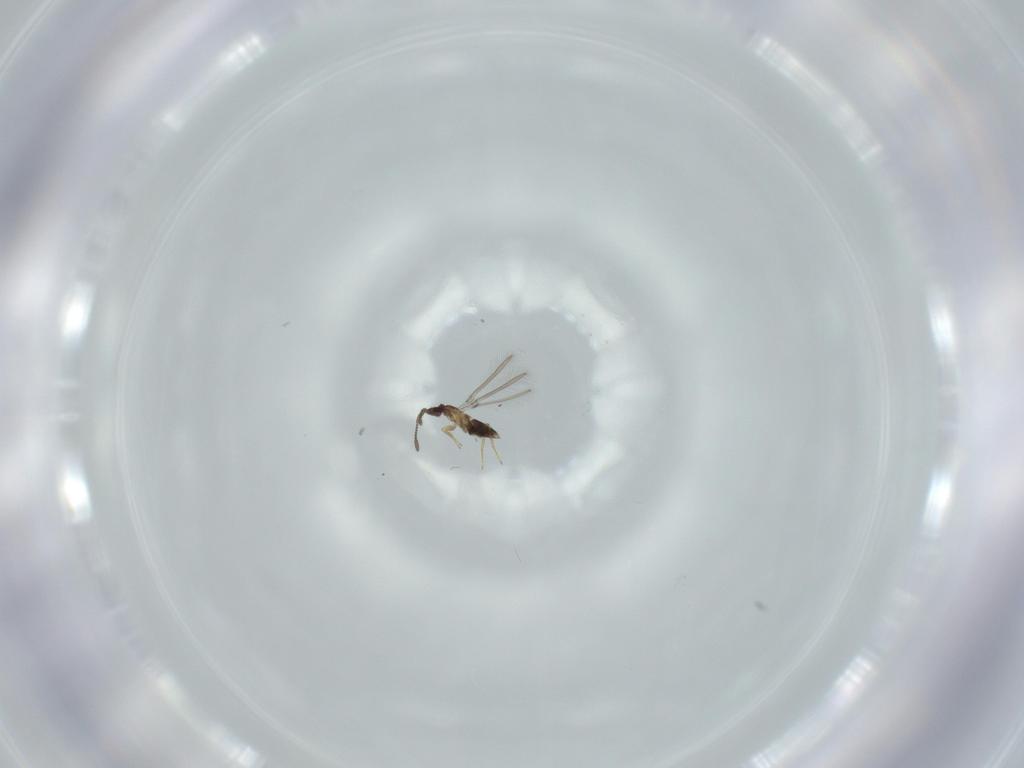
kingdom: Animalia
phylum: Arthropoda
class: Insecta
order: Hymenoptera
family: Mymaridae
